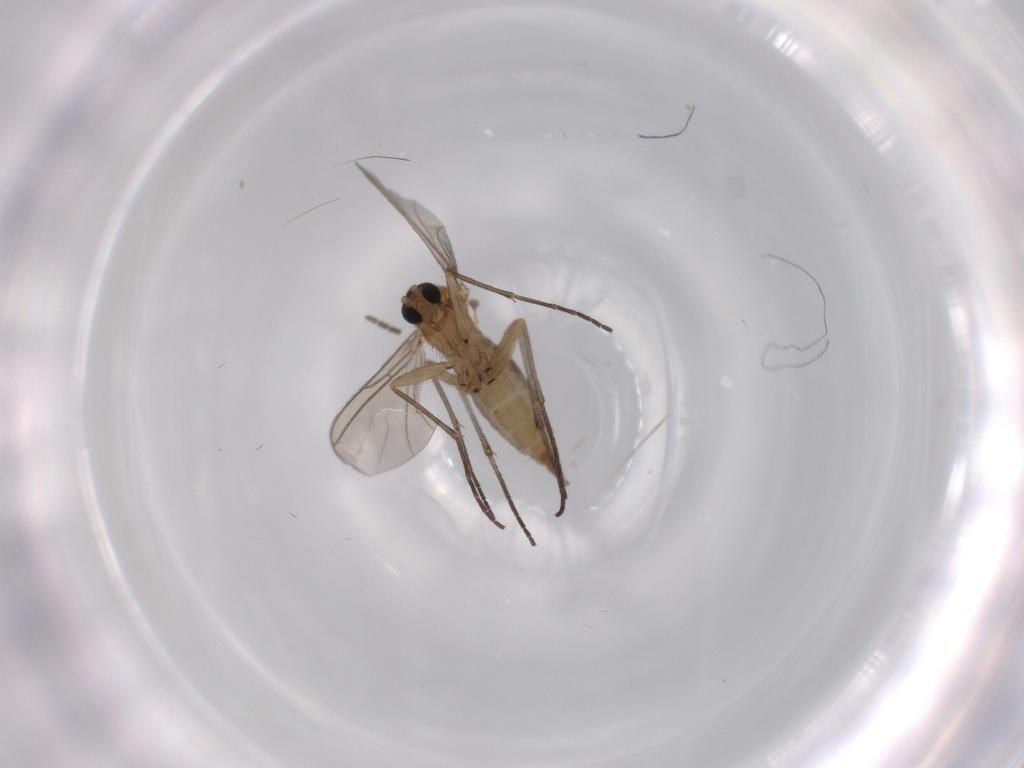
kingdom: Animalia
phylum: Arthropoda
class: Insecta
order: Diptera
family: Sciaridae
